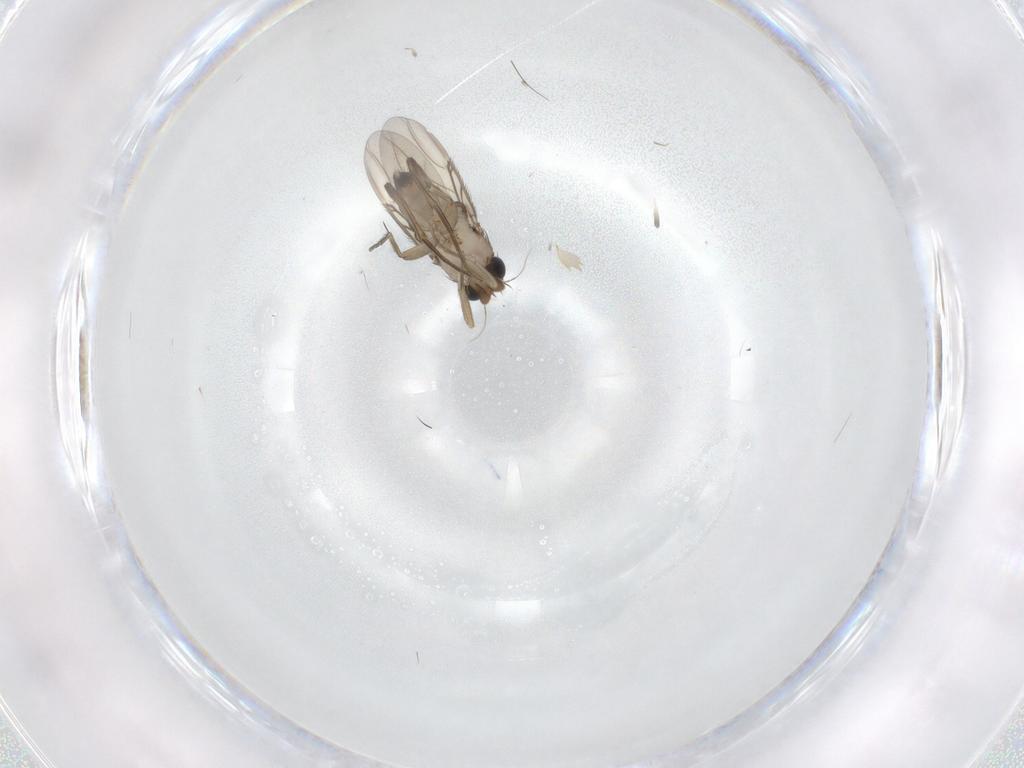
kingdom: Animalia
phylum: Arthropoda
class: Insecta
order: Diptera
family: Phoridae
